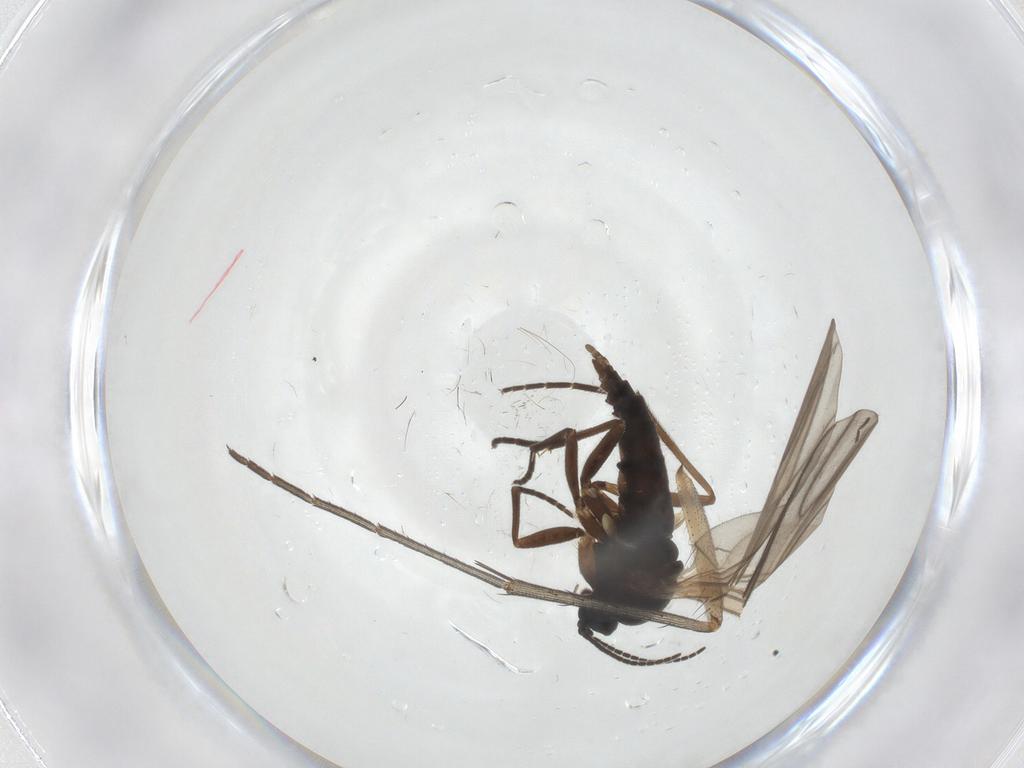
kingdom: Animalia
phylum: Arthropoda
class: Insecta
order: Diptera
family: Sciaridae
